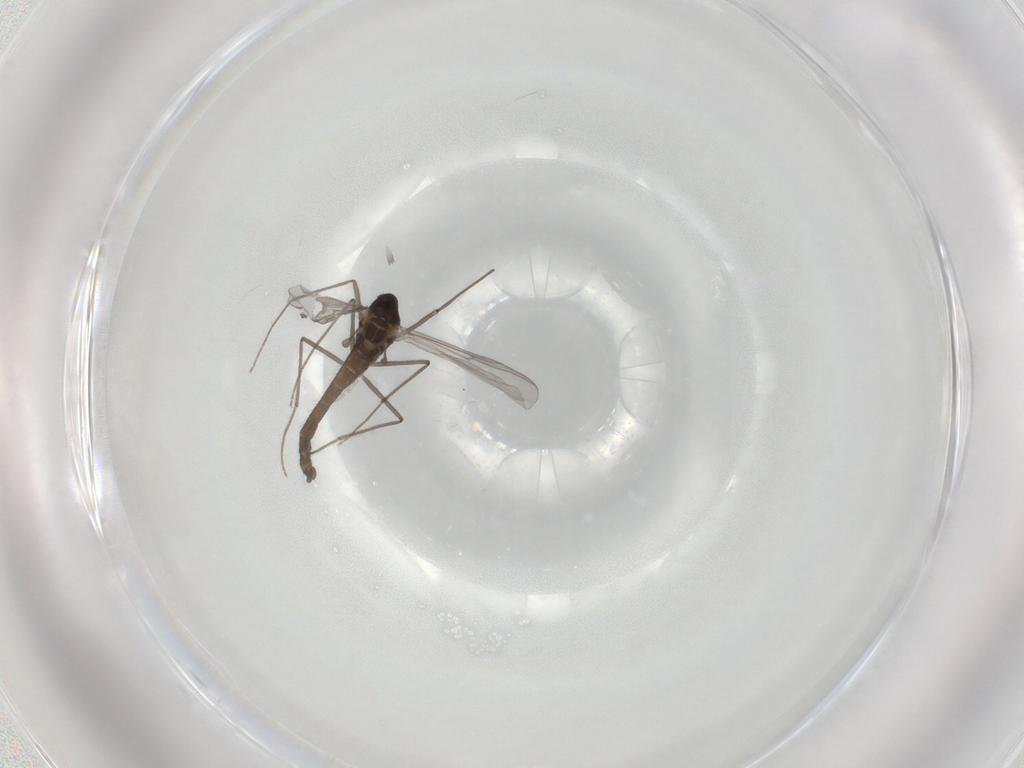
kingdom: Animalia
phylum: Arthropoda
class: Insecta
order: Diptera
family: Chironomidae
